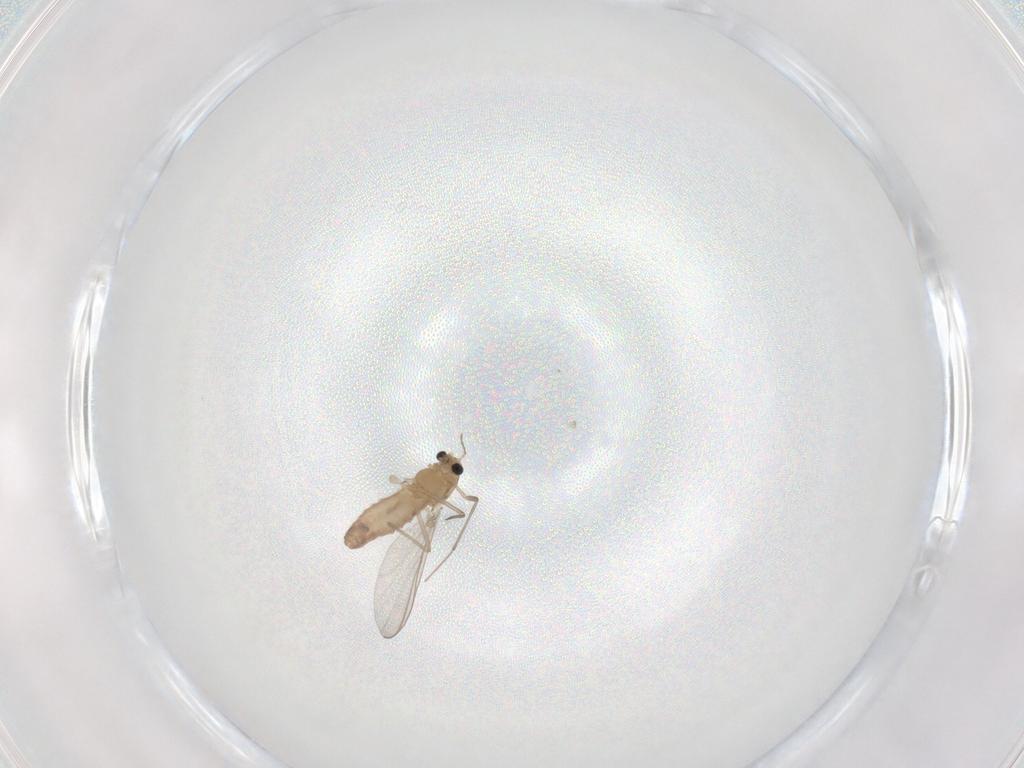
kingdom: Animalia
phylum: Arthropoda
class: Insecta
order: Diptera
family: Chironomidae
